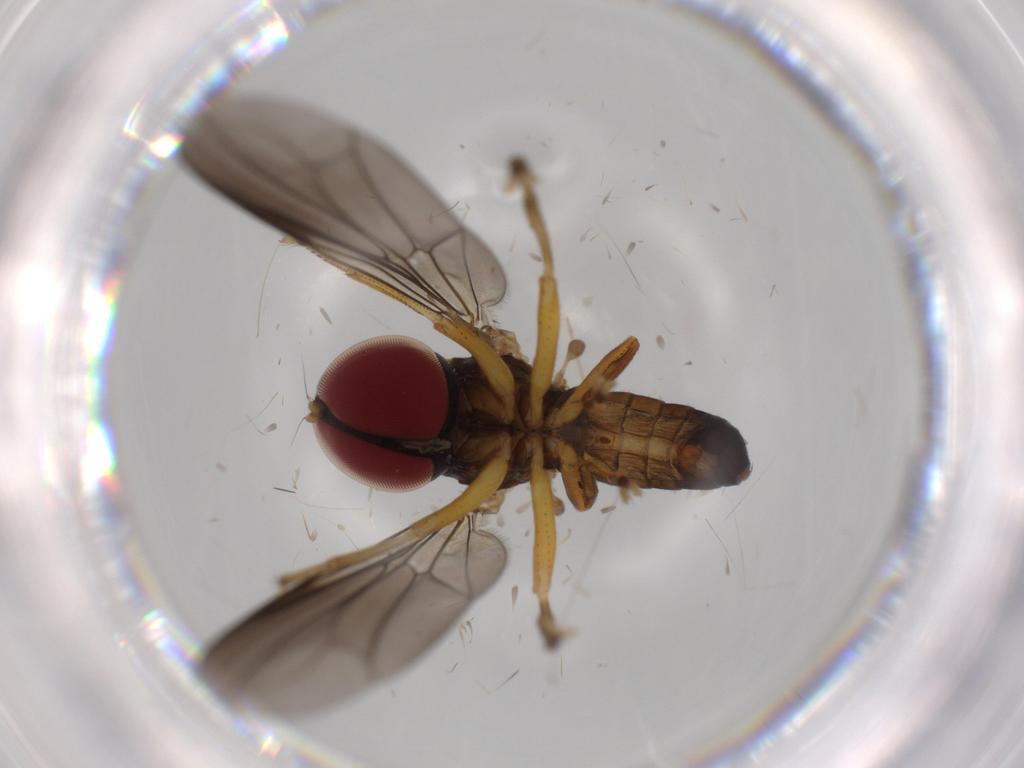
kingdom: Animalia
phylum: Arthropoda
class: Insecta
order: Diptera
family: Pipunculidae
